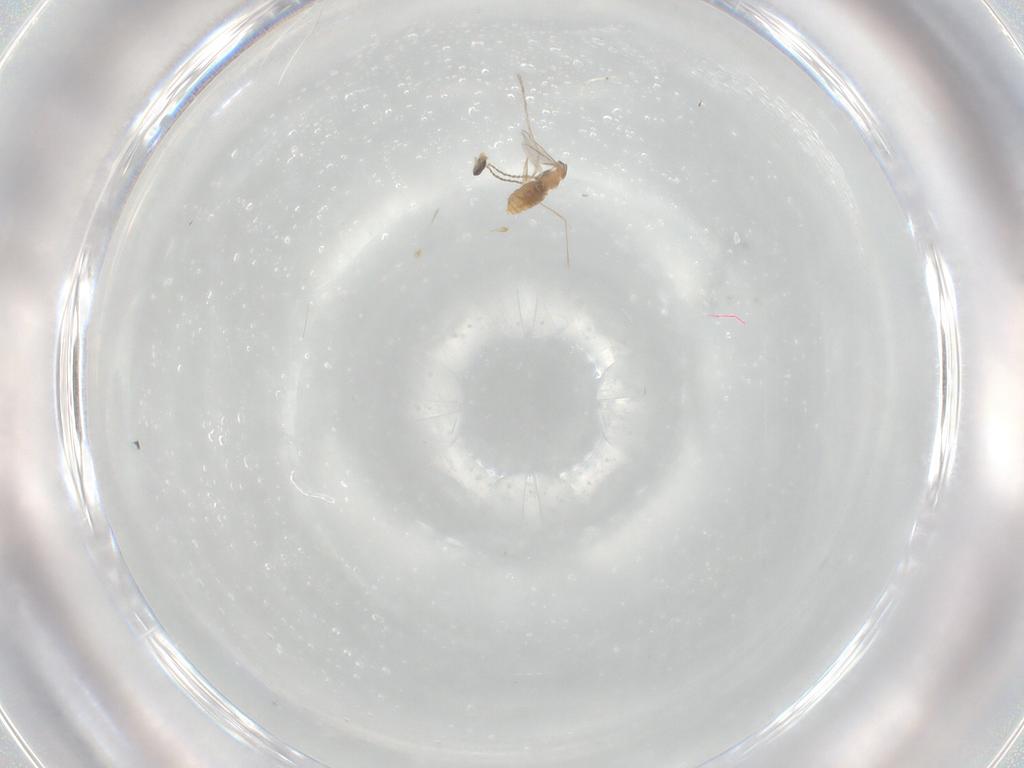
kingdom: Animalia
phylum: Arthropoda
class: Insecta
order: Diptera
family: Cecidomyiidae
